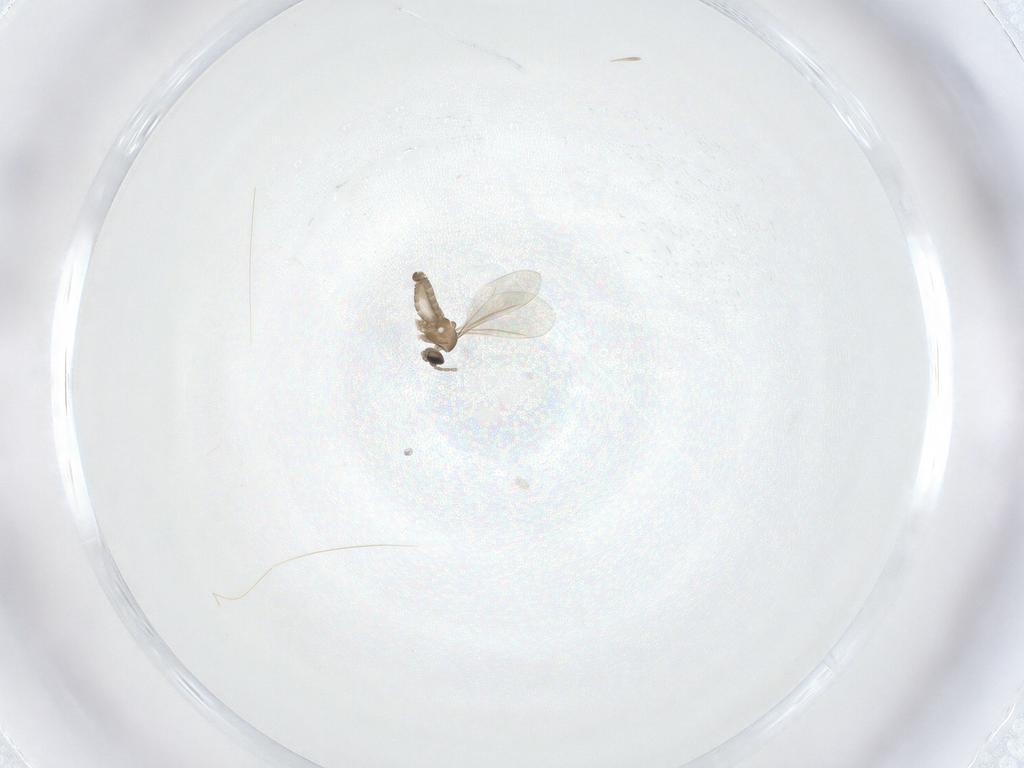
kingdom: Animalia
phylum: Arthropoda
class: Insecta
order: Diptera
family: Cecidomyiidae
